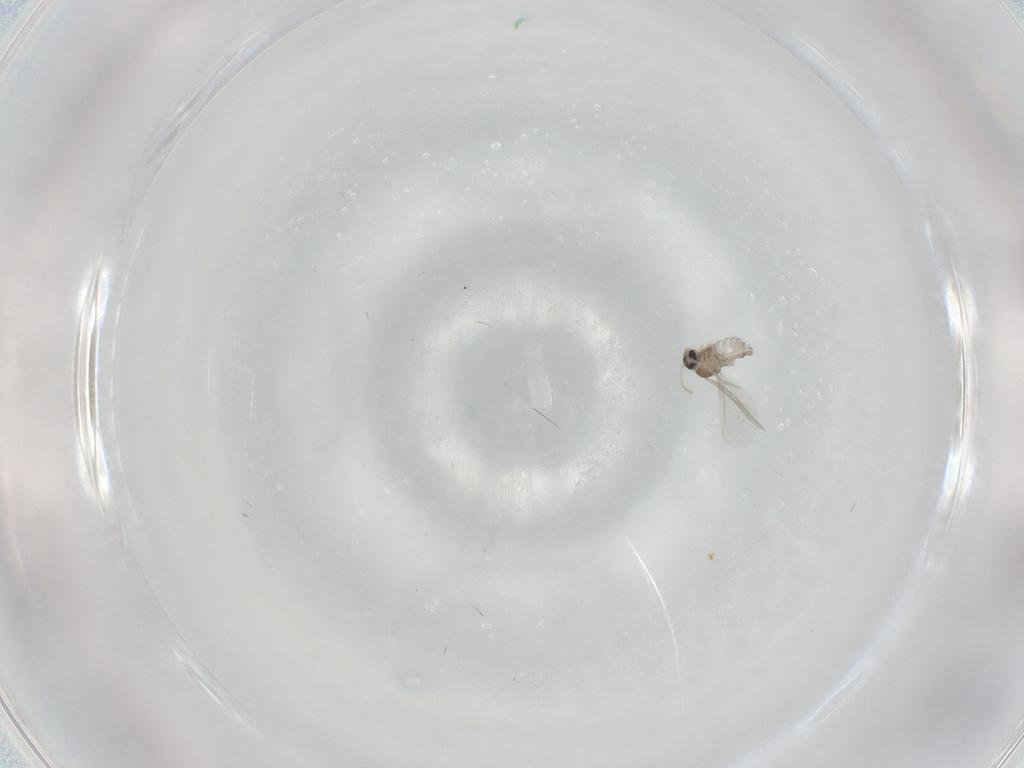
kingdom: Animalia
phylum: Arthropoda
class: Insecta
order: Diptera
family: Cecidomyiidae
